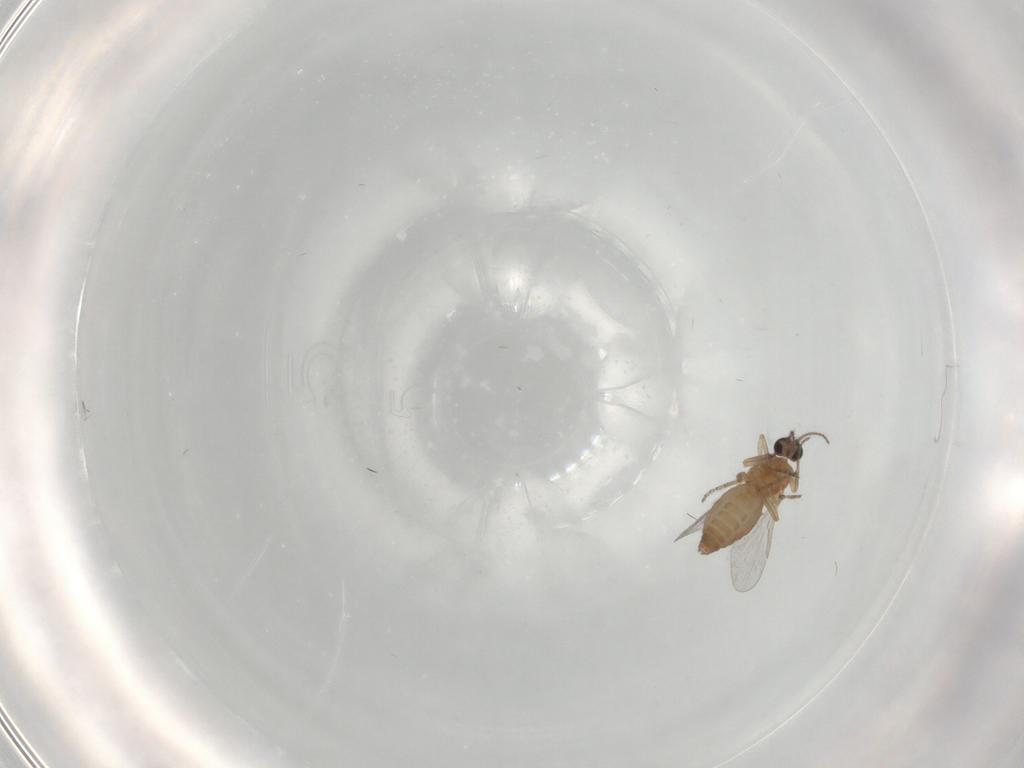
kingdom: Animalia
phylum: Arthropoda
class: Insecta
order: Diptera
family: Ceratopogonidae
